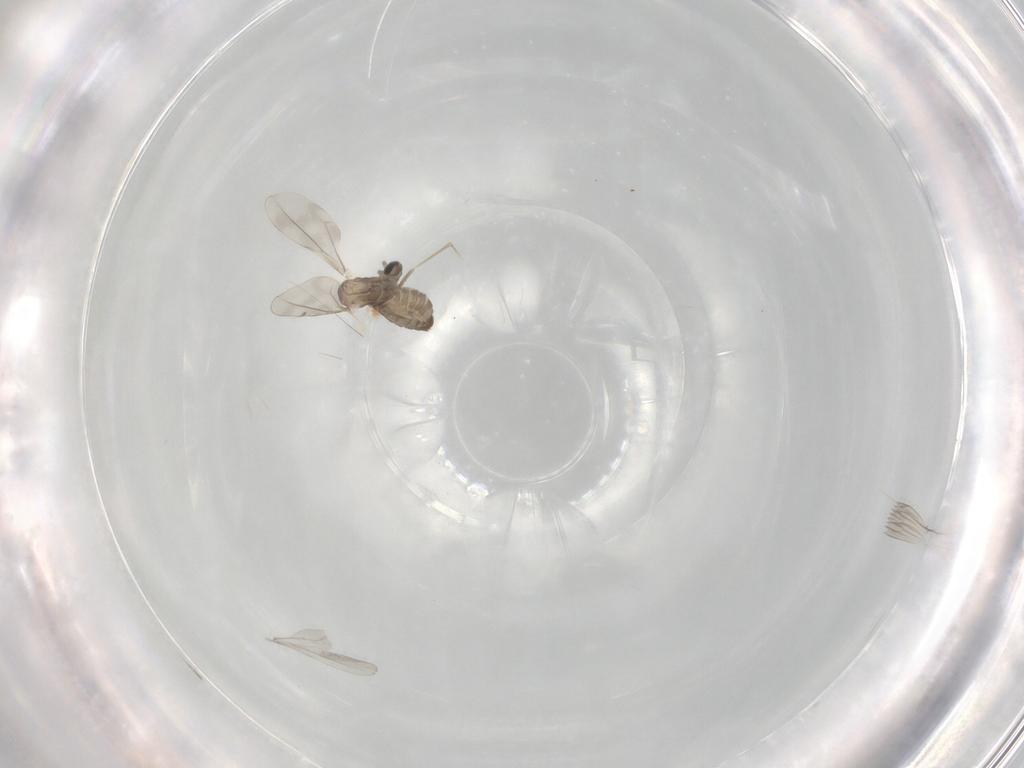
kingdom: Animalia
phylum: Arthropoda
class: Insecta
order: Diptera
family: Cecidomyiidae
